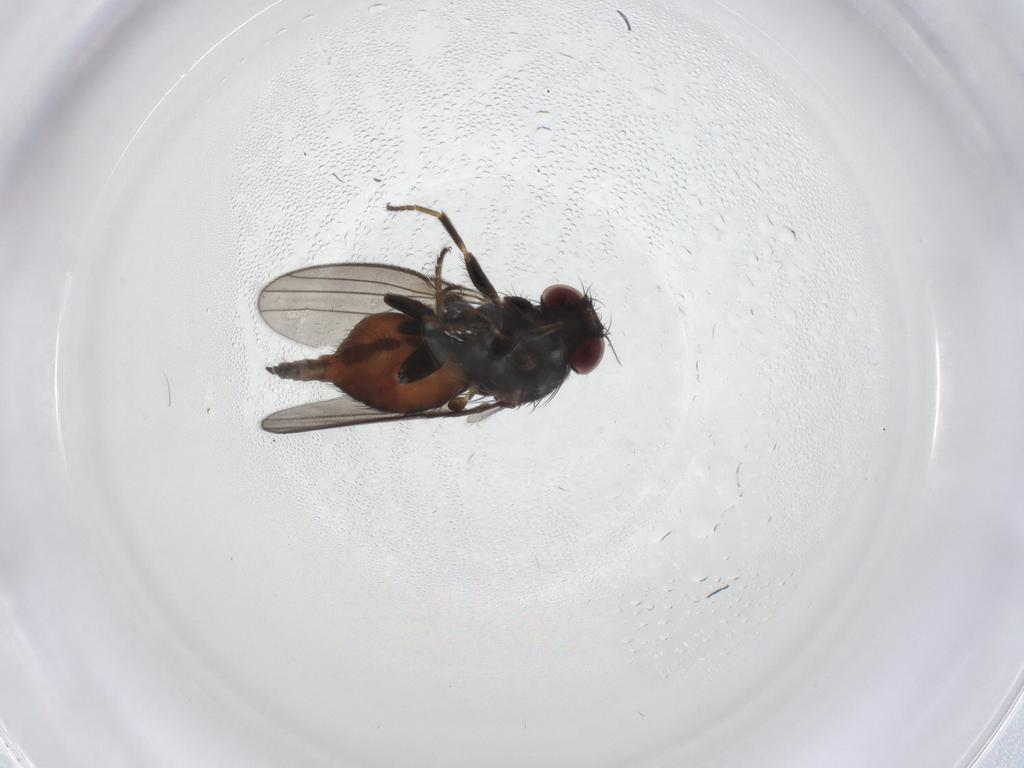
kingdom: Animalia
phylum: Arthropoda
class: Insecta
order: Diptera
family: Milichiidae
